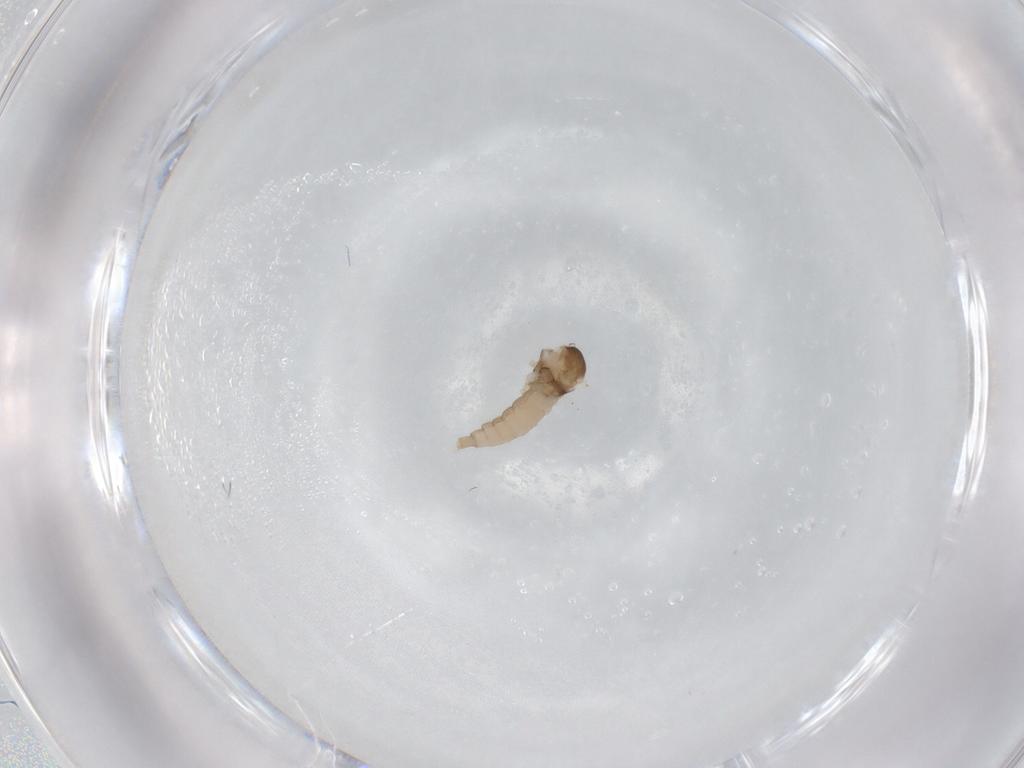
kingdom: Animalia
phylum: Arthropoda
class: Insecta
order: Diptera
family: Cecidomyiidae
